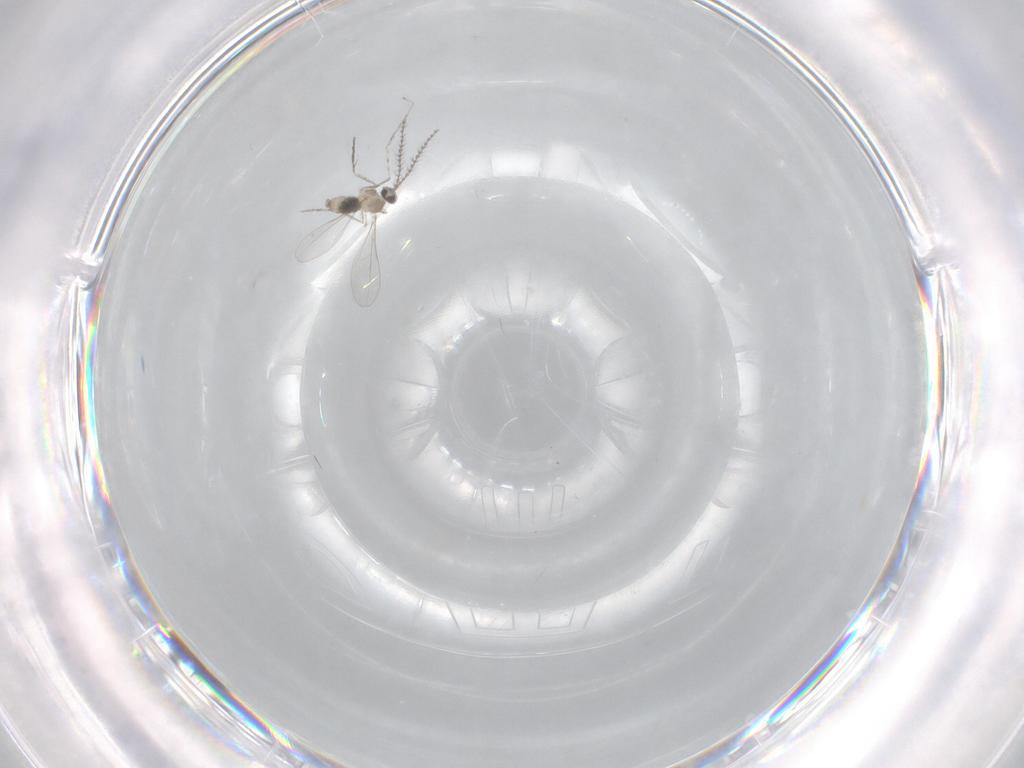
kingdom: Animalia
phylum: Arthropoda
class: Insecta
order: Diptera
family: Cecidomyiidae
